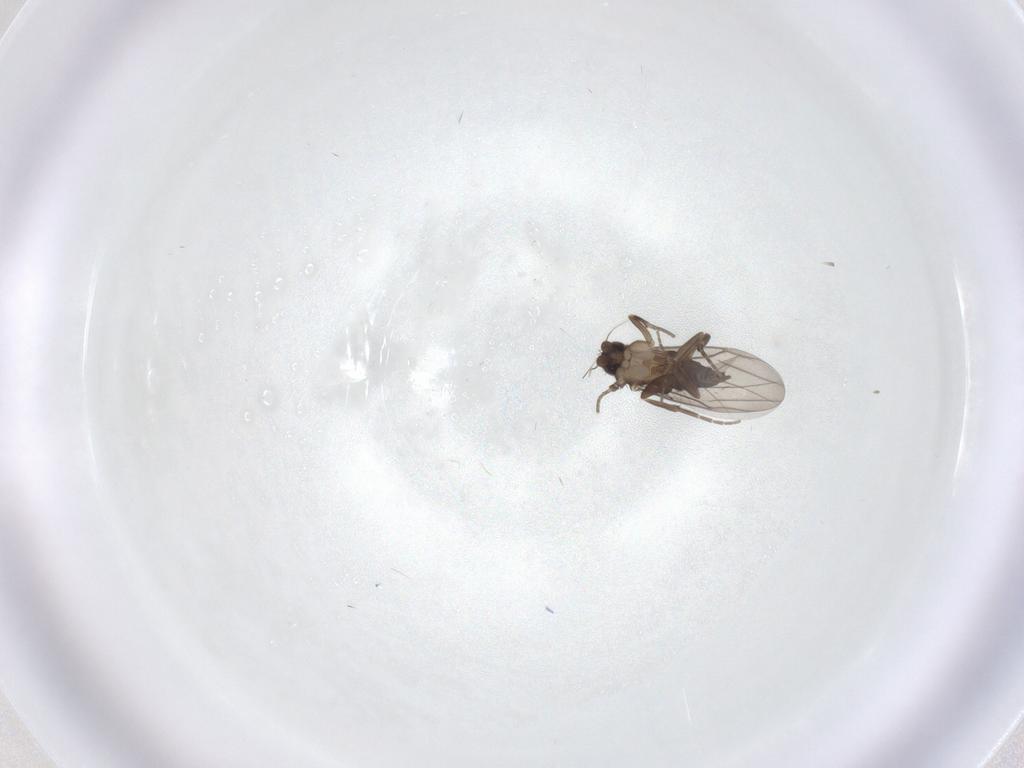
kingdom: Animalia
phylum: Arthropoda
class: Insecta
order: Diptera
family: Phoridae
